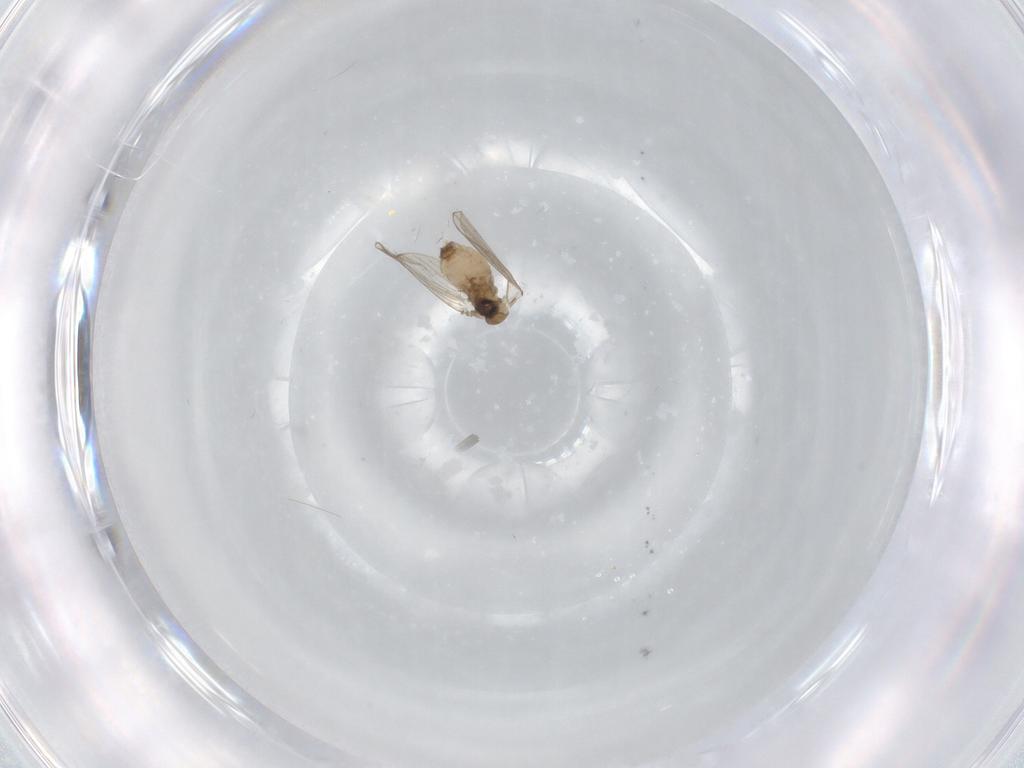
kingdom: Animalia
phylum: Arthropoda
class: Insecta
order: Diptera
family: Psychodidae
